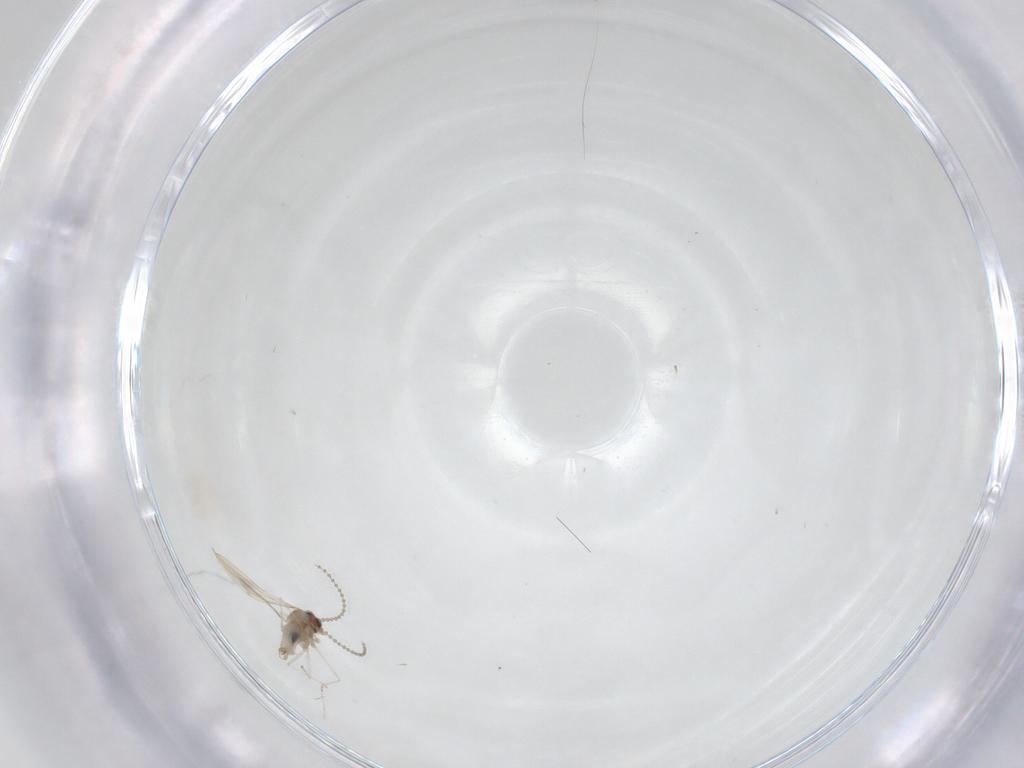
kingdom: Animalia
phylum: Arthropoda
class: Insecta
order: Diptera
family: Cecidomyiidae
